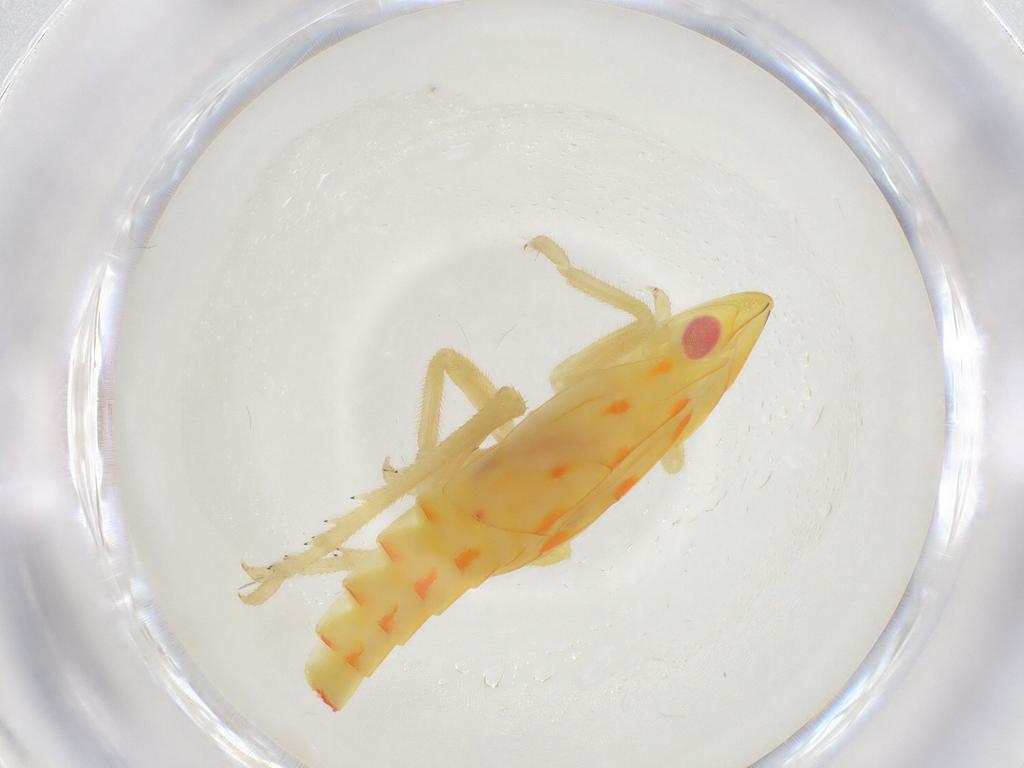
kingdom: Animalia
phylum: Arthropoda
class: Insecta
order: Hemiptera
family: Tropiduchidae
